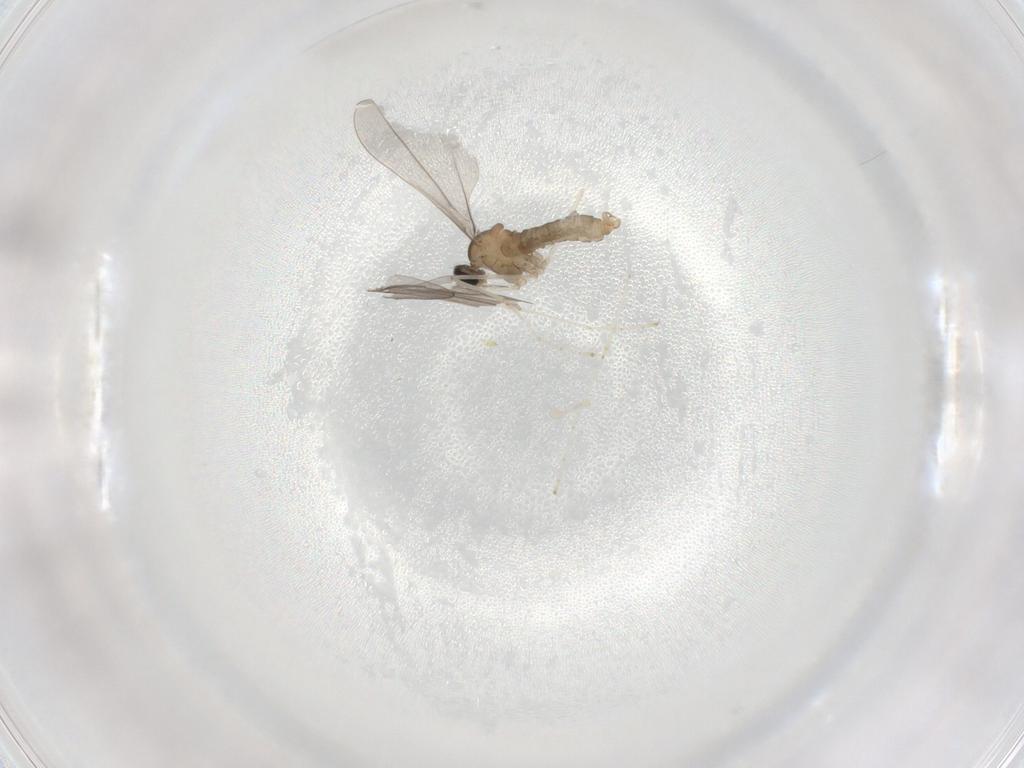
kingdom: Animalia
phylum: Arthropoda
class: Insecta
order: Diptera
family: Chironomidae
